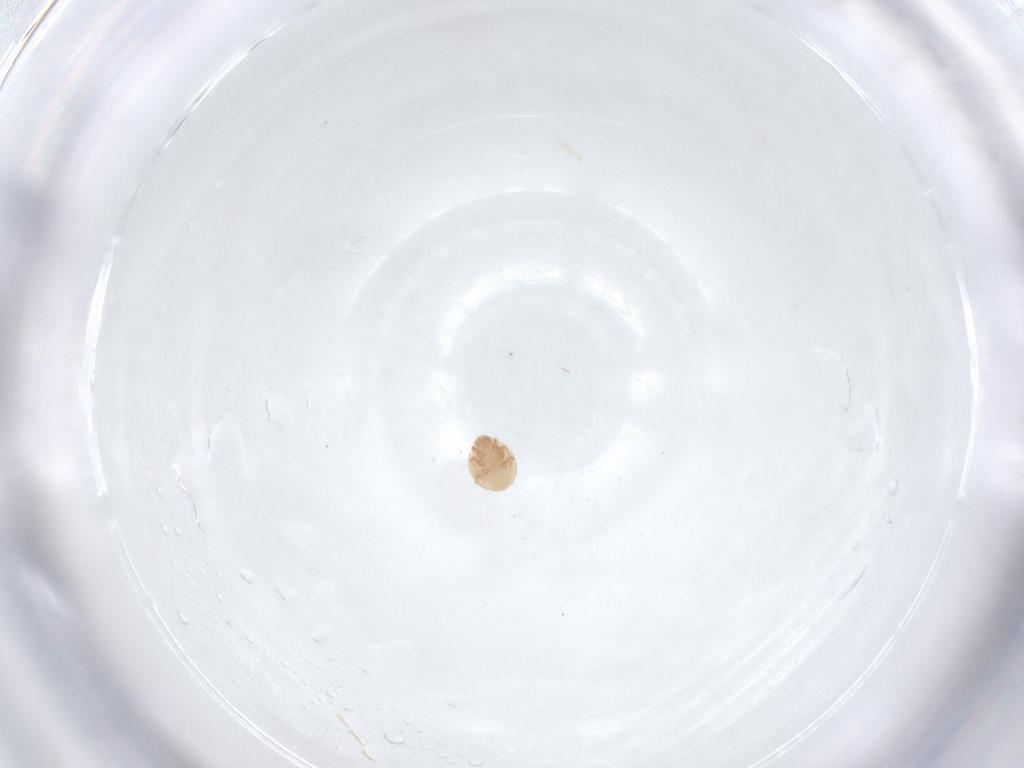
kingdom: Animalia
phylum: Arthropoda
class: Arachnida
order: Mesostigmata
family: Trematuridae
